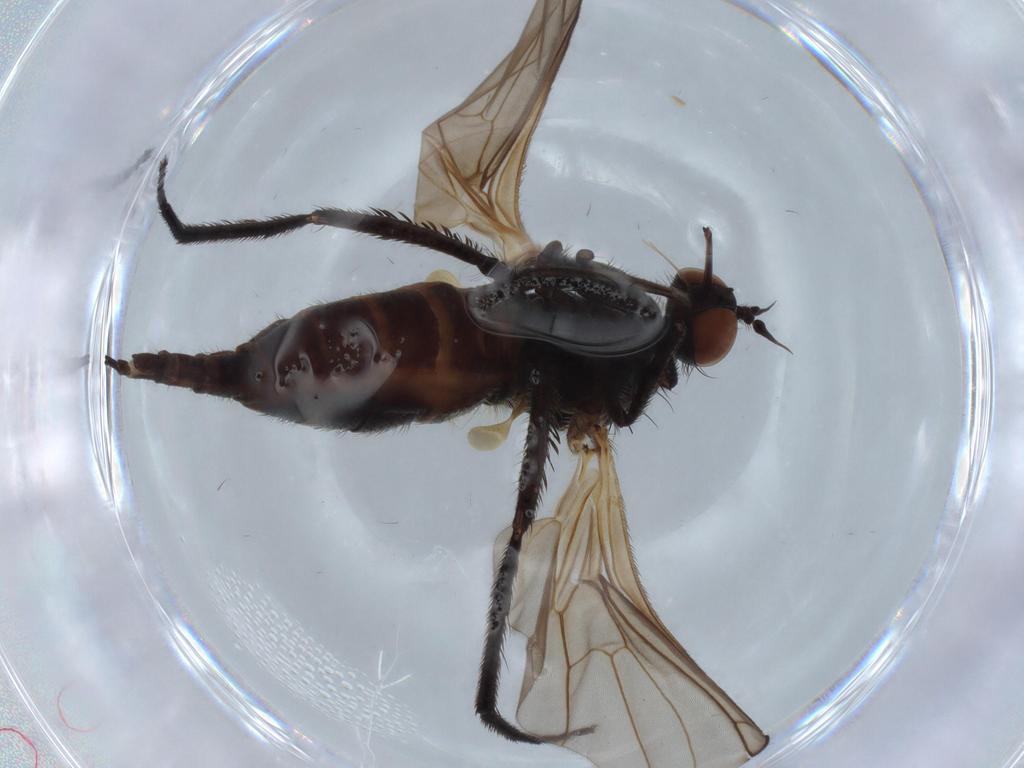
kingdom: Animalia
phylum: Arthropoda
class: Insecta
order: Diptera
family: Empididae
